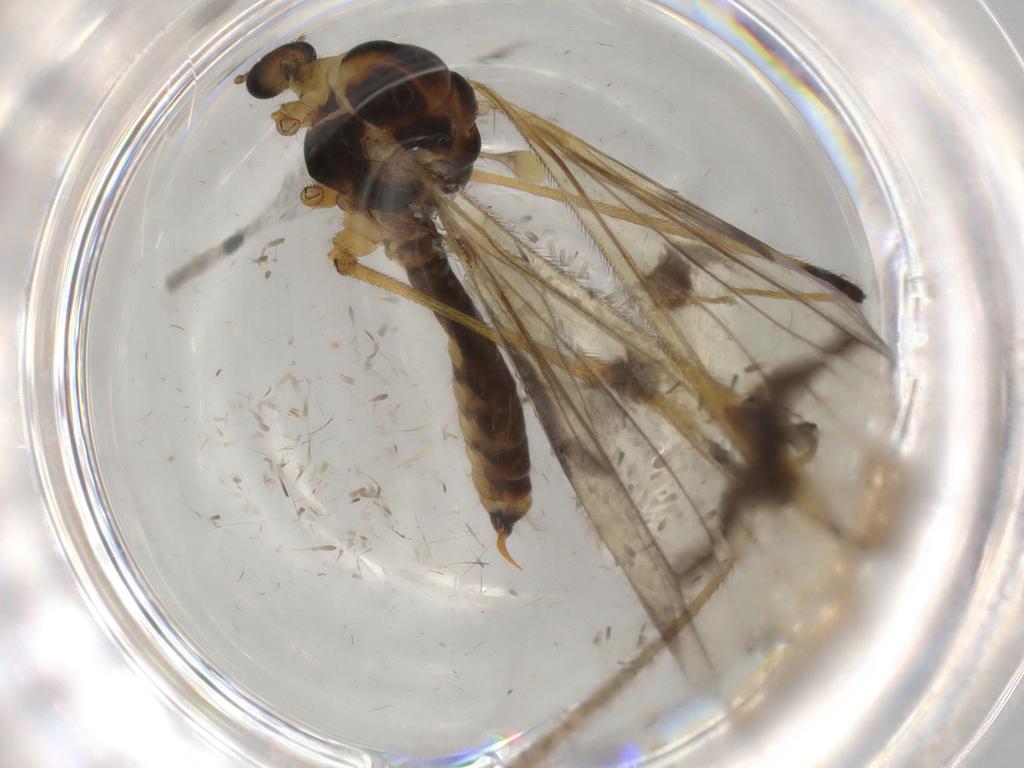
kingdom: Animalia
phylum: Arthropoda
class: Insecta
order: Diptera
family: Limoniidae
